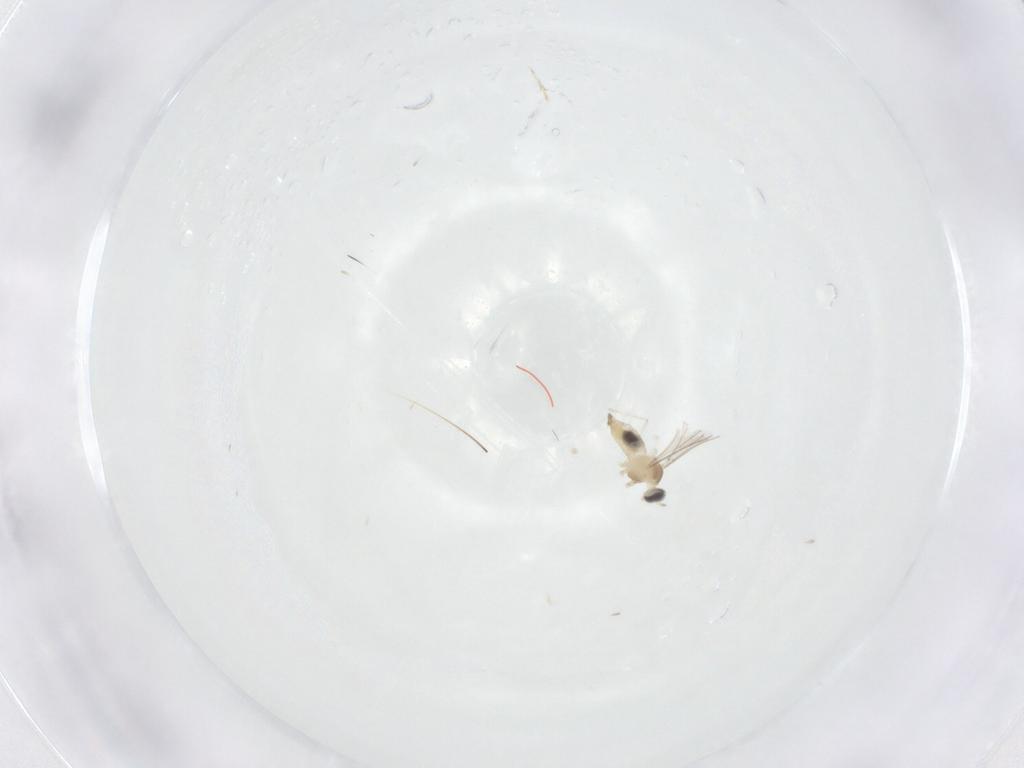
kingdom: Animalia
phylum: Arthropoda
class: Insecta
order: Diptera
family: Cecidomyiidae
